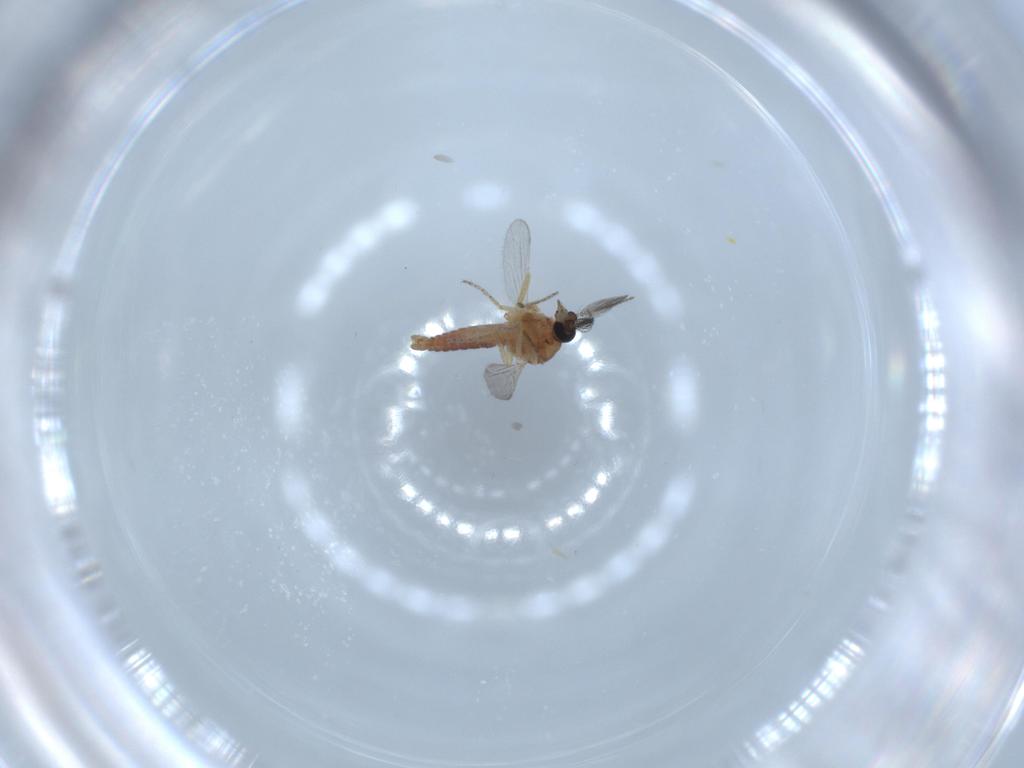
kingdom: Animalia
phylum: Arthropoda
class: Insecta
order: Diptera
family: Ceratopogonidae
